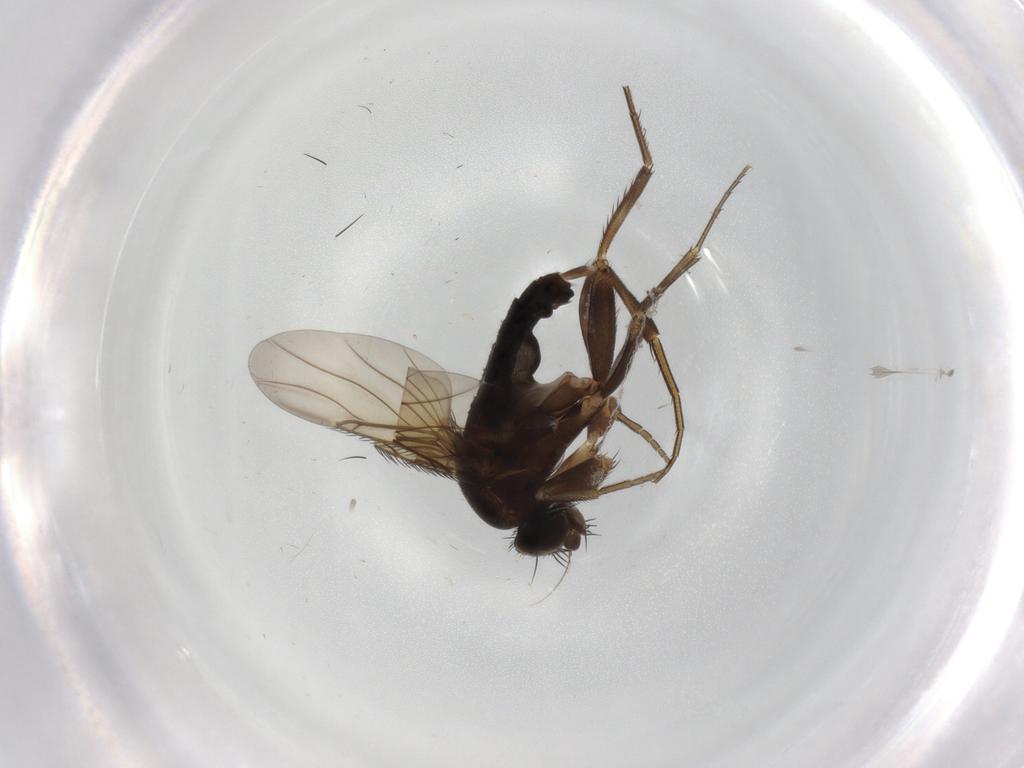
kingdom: Animalia
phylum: Arthropoda
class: Insecta
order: Diptera
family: Phoridae
